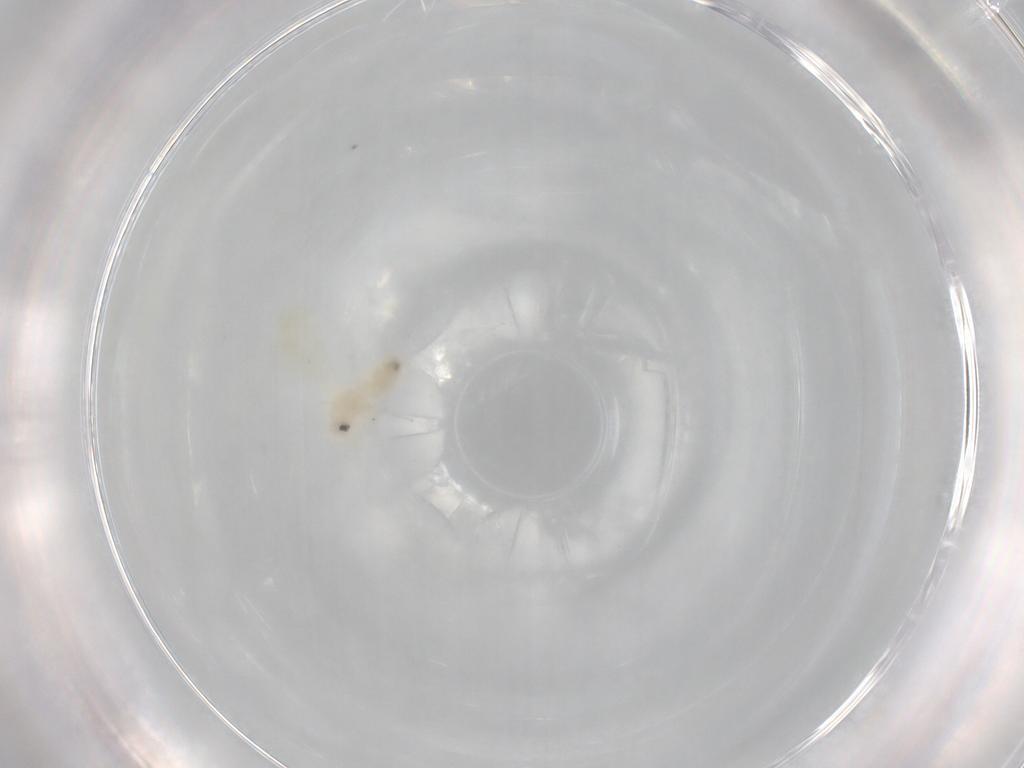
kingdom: Animalia
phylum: Arthropoda
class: Insecta
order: Hemiptera
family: Aleyrodidae
